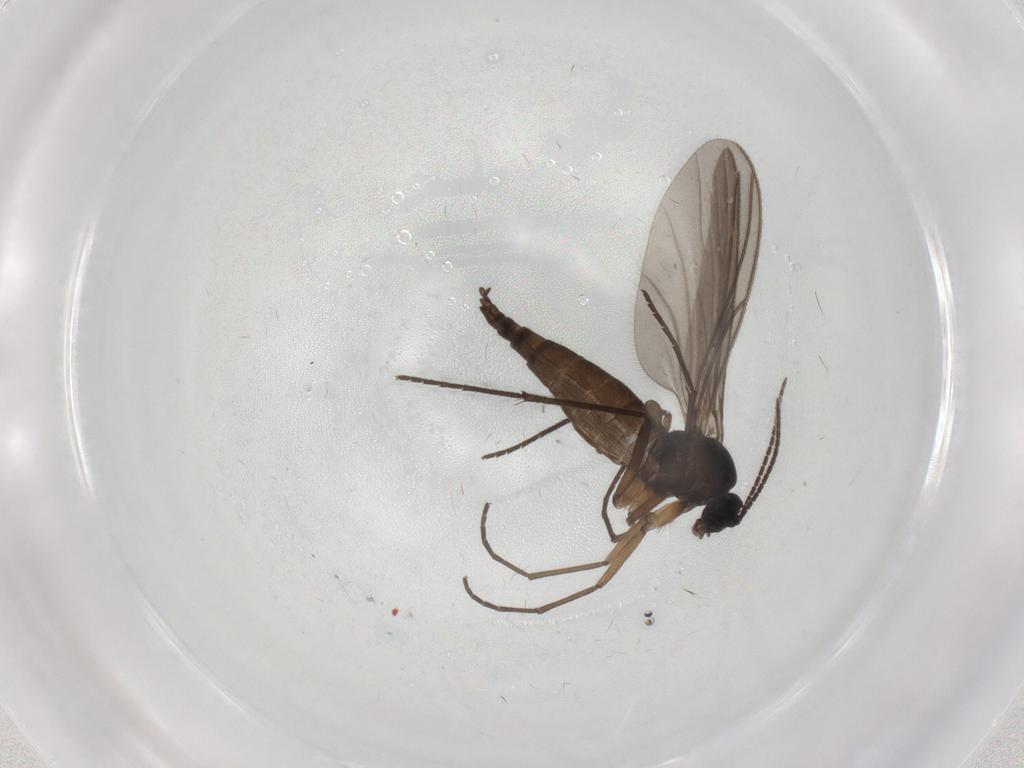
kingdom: Animalia
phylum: Arthropoda
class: Insecta
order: Diptera
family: Sciaridae
